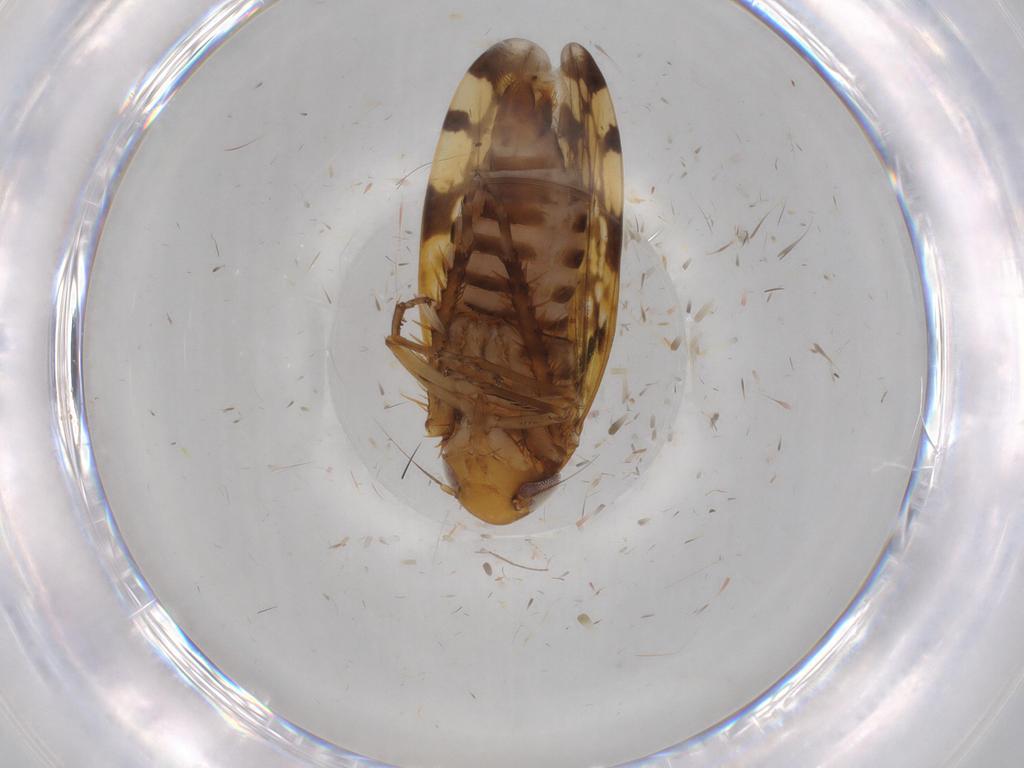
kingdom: Animalia
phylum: Arthropoda
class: Insecta
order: Hemiptera
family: Cicadellidae
